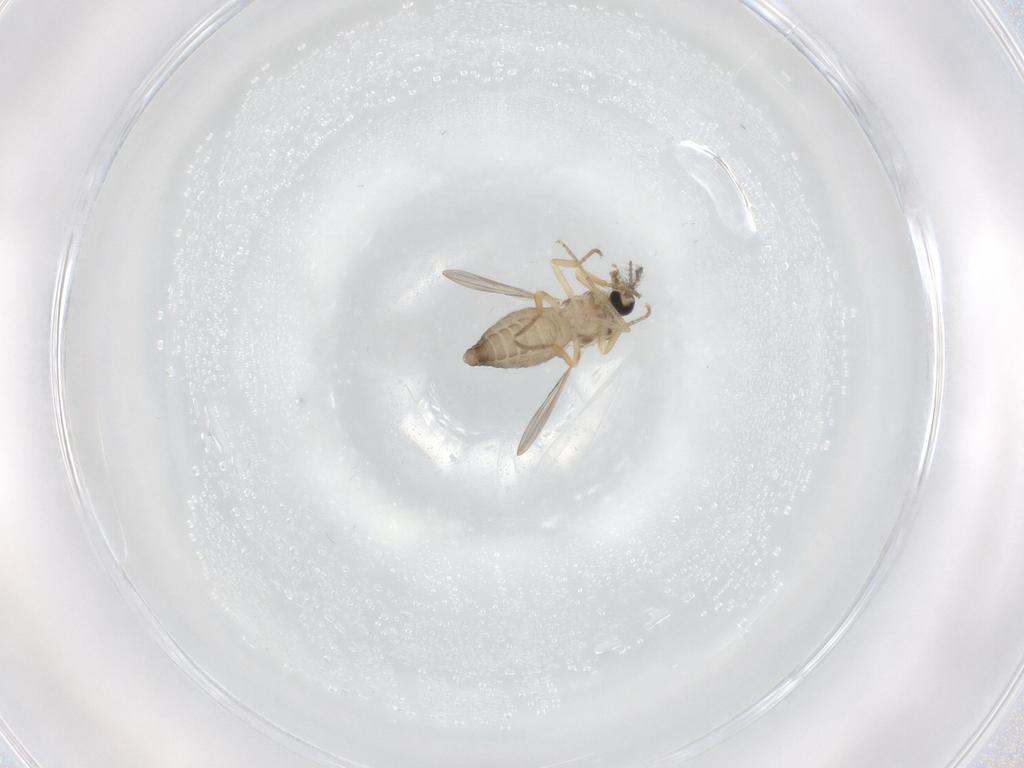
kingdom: Animalia
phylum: Arthropoda
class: Insecta
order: Diptera
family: Ceratopogonidae
